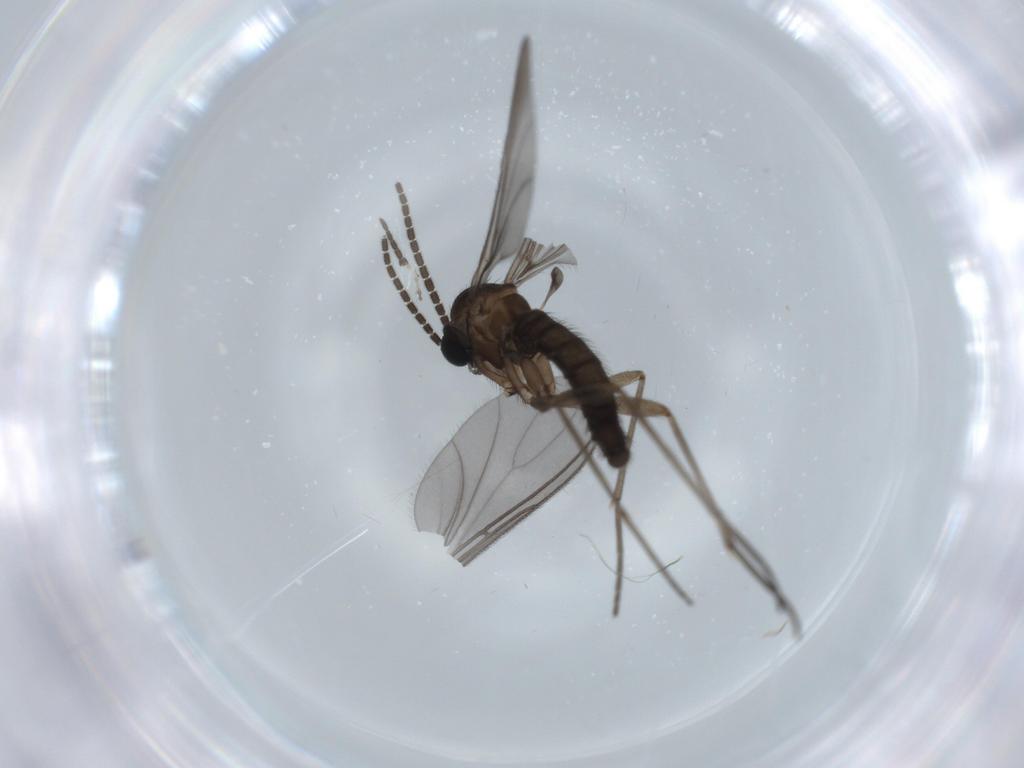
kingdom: Animalia
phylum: Arthropoda
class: Insecta
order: Diptera
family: Sciaridae
